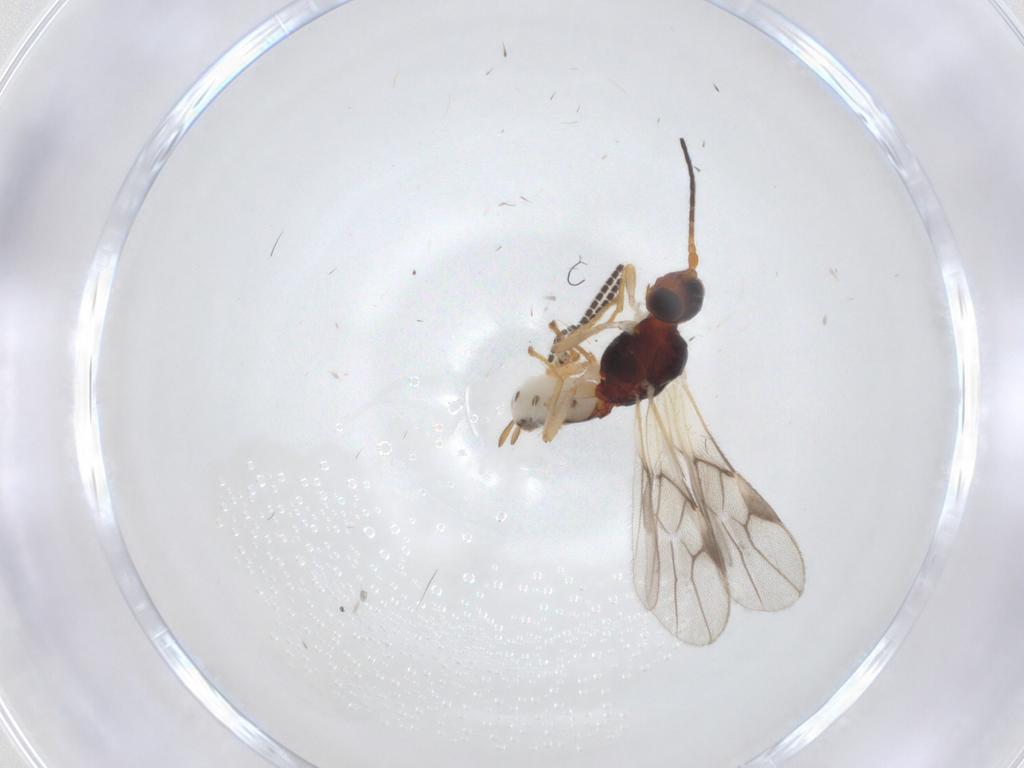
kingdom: Animalia
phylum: Arthropoda
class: Insecta
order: Hymenoptera
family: Braconidae
